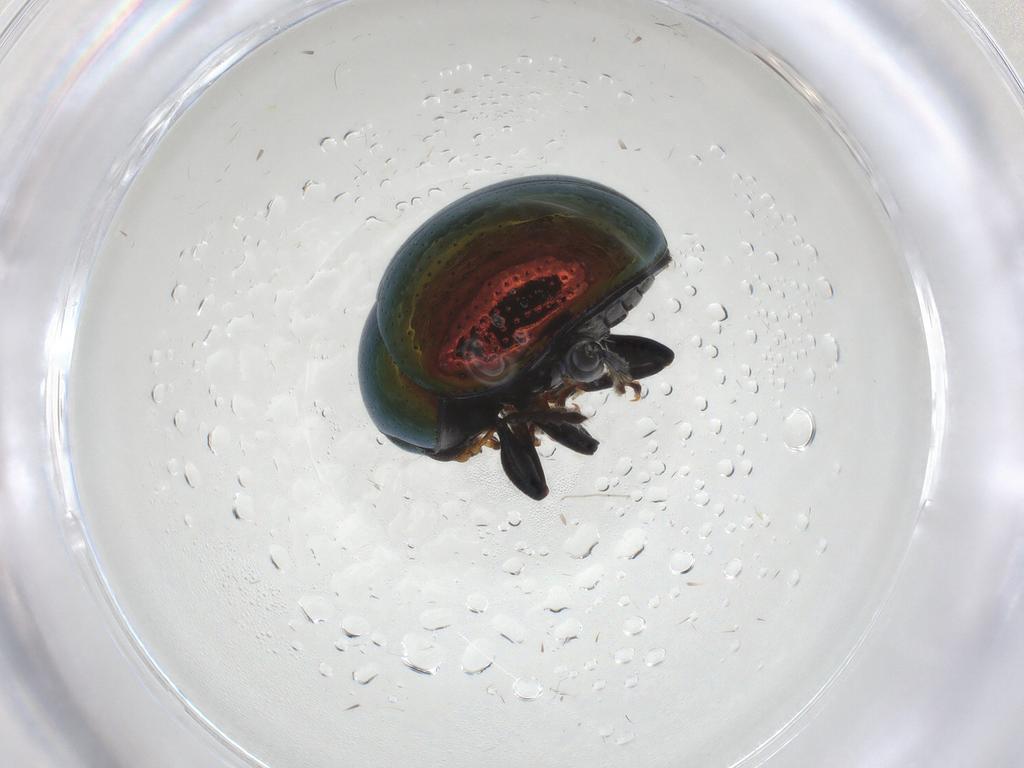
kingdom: Animalia
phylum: Arthropoda
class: Insecta
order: Coleoptera
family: Chrysomelidae
